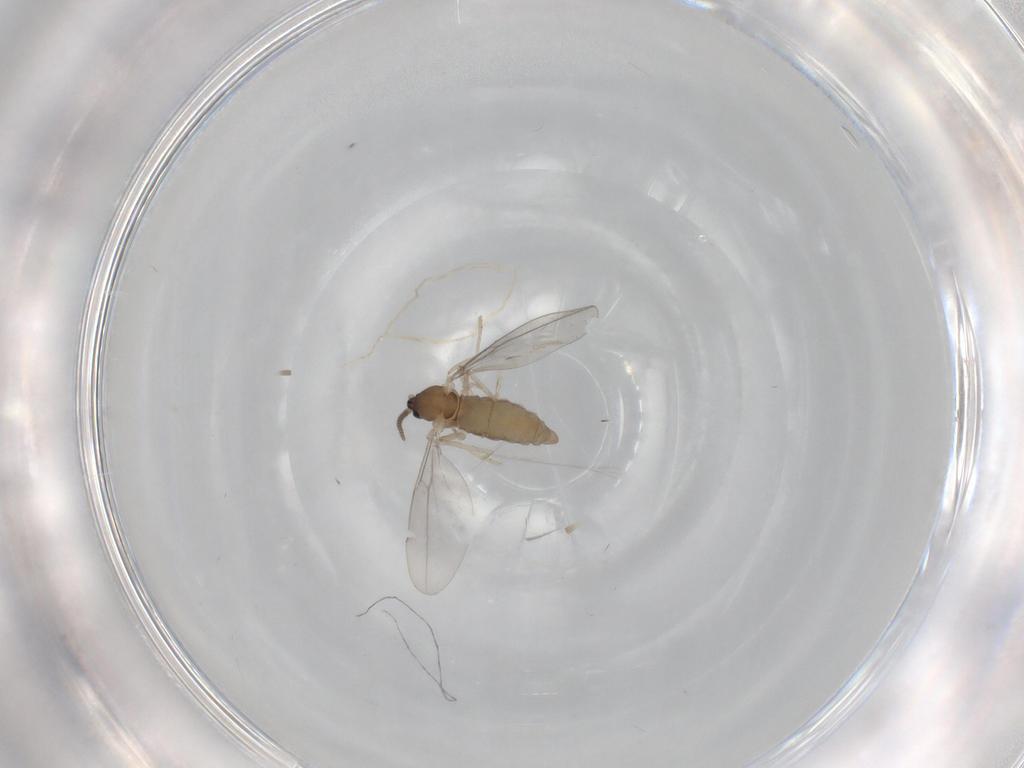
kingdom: Animalia
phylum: Arthropoda
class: Insecta
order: Diptera
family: Cecidomyiidae
